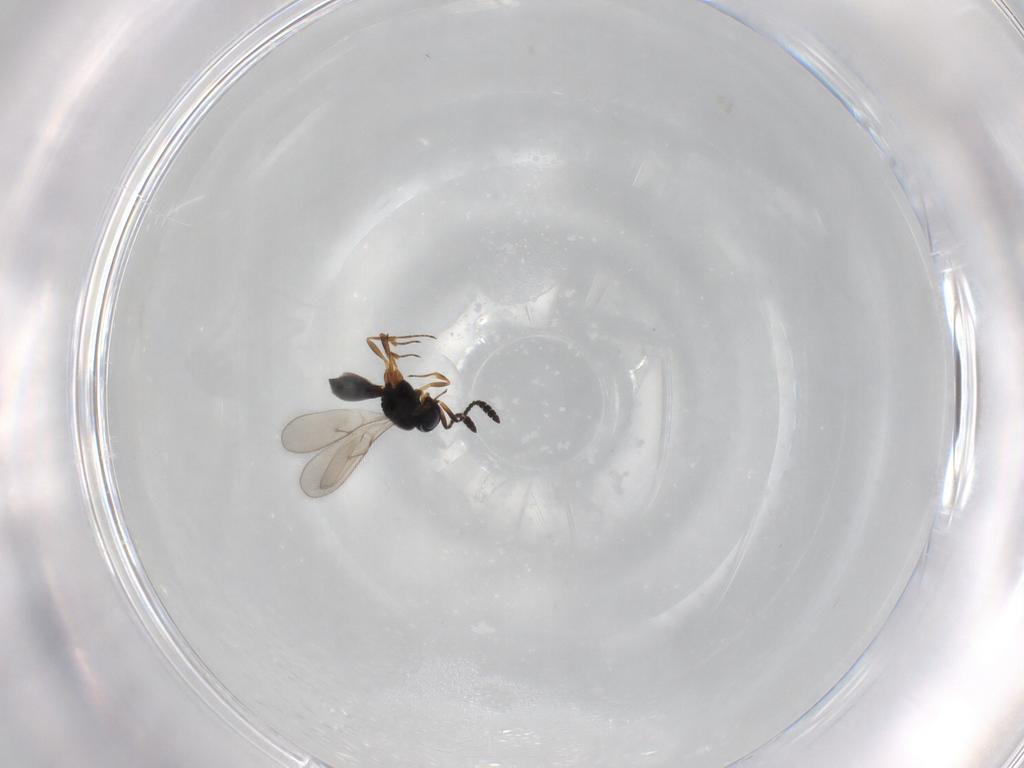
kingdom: Animalia
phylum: Arthropoda
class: Insecta
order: Hymenoptera
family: Scelionidae
